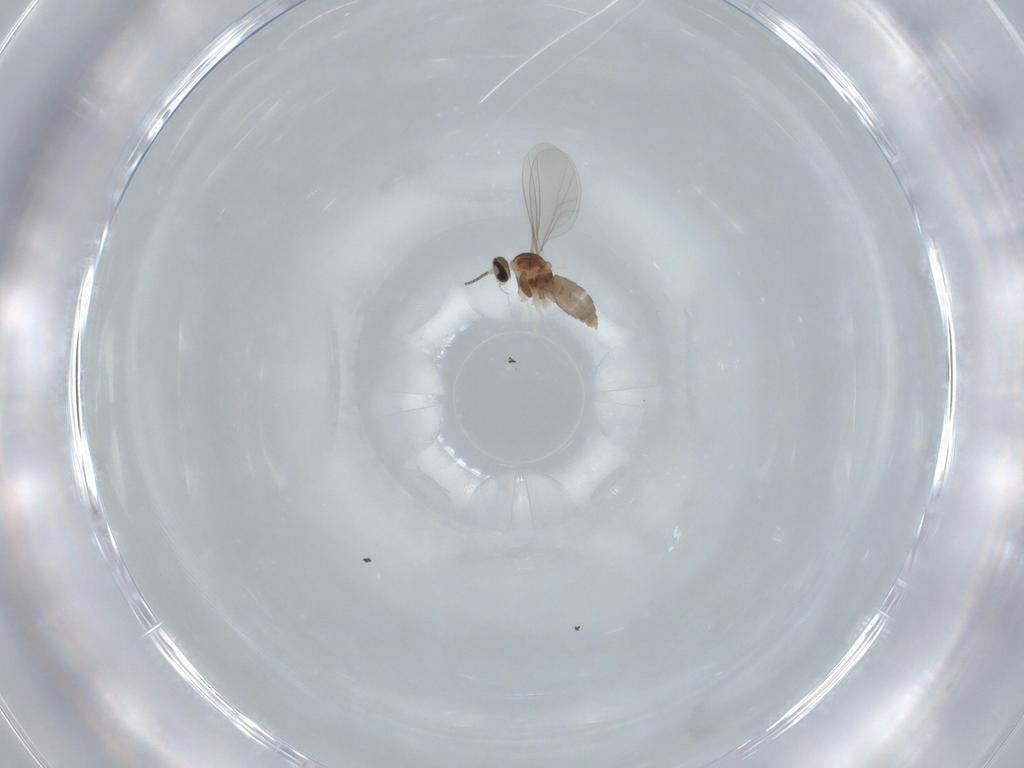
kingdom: Animalia
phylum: Arthropoda
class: Insecta
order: Diptera
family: Cecidomyiidae
